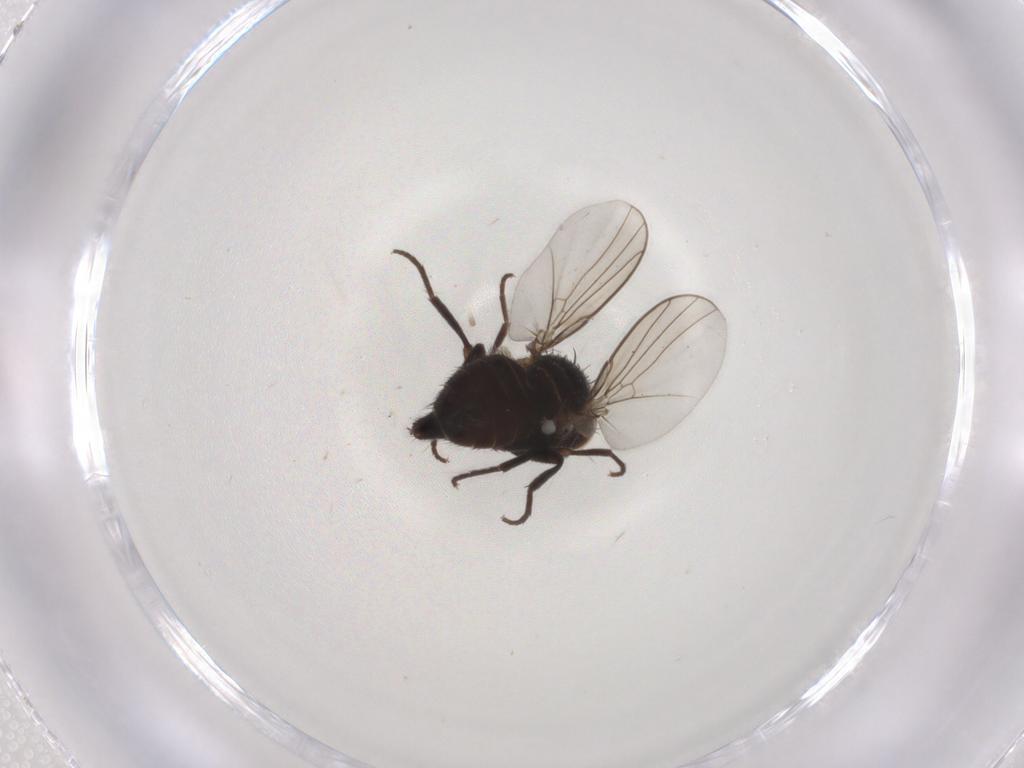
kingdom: Animalia
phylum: Arthropoda
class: Insecta
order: Diptera
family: Agromyzidae
